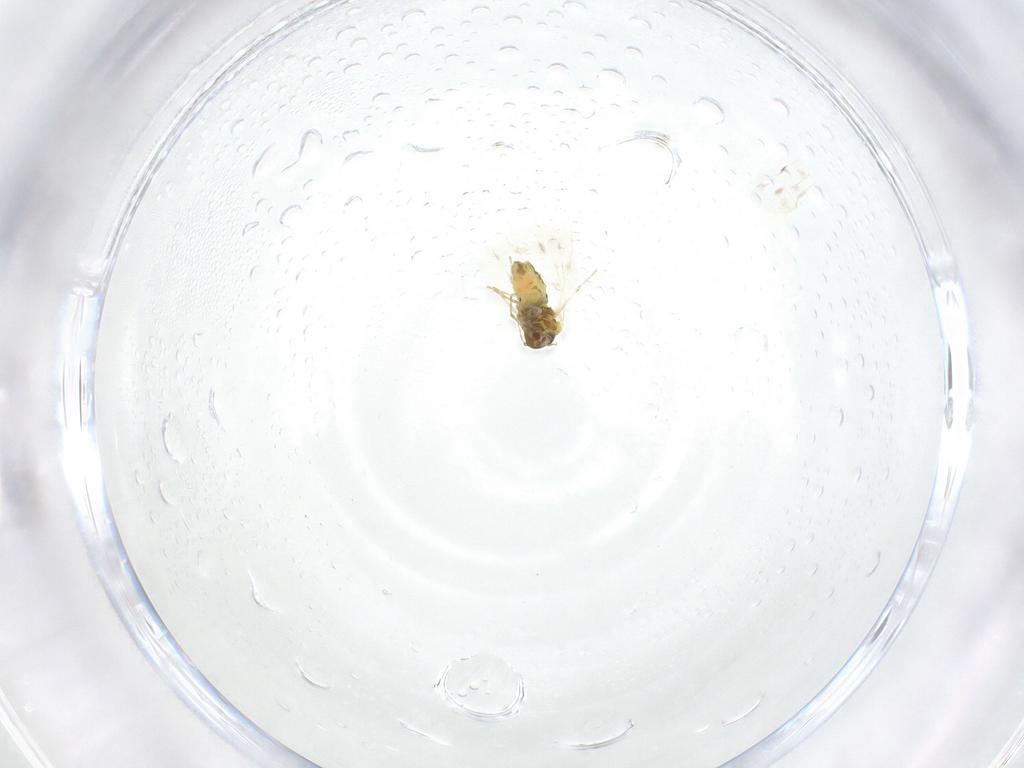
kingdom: Animalia
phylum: Arthropoda
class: Insecta
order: Hemiptera
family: Aleyrodidae
